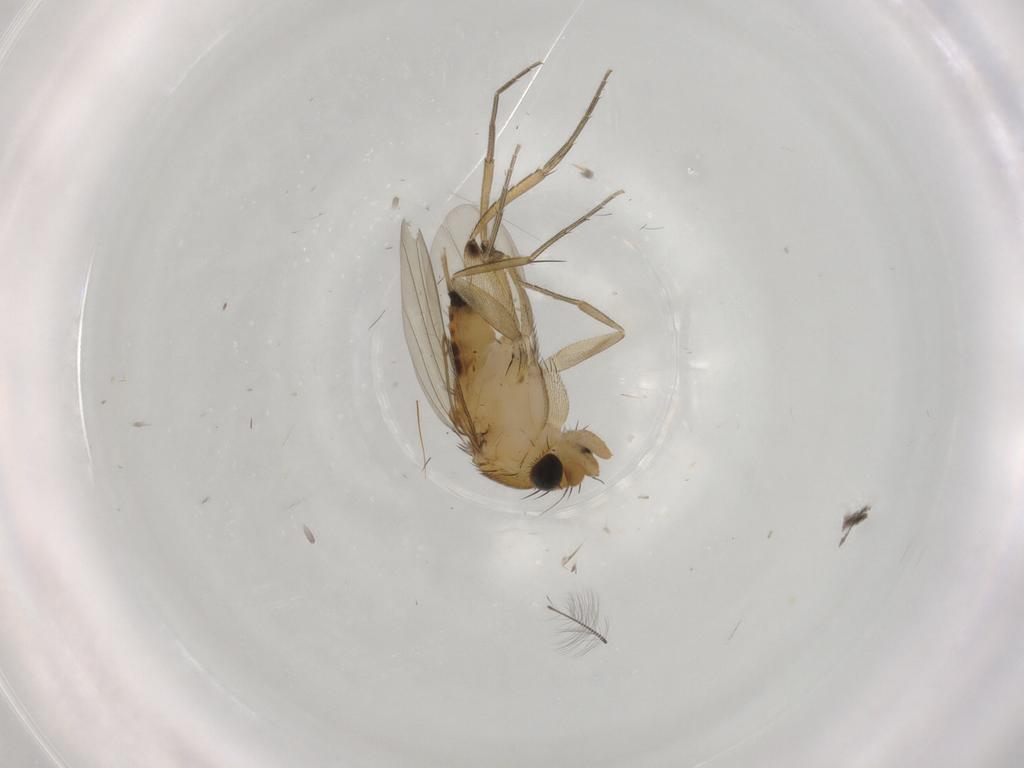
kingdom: Animalia
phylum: Arthropoda
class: Insecta
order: Diptera
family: Phoridae
